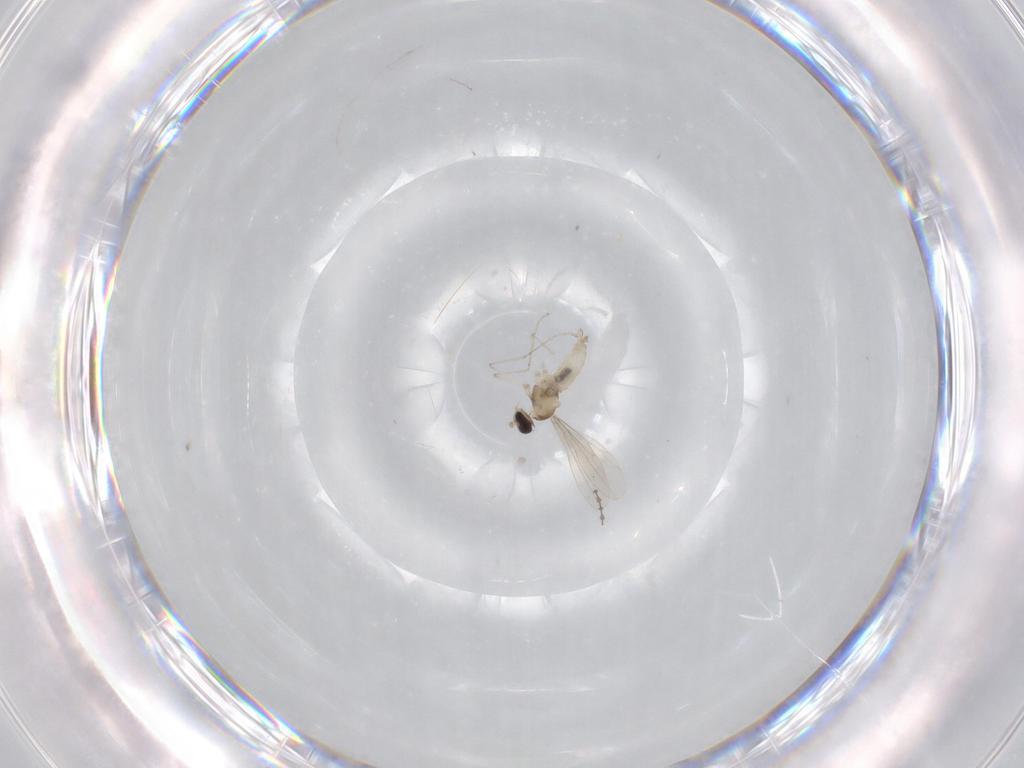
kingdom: Animalia
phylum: Arthropoda
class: Insecta
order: Diptera
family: Cecidomyiidae
